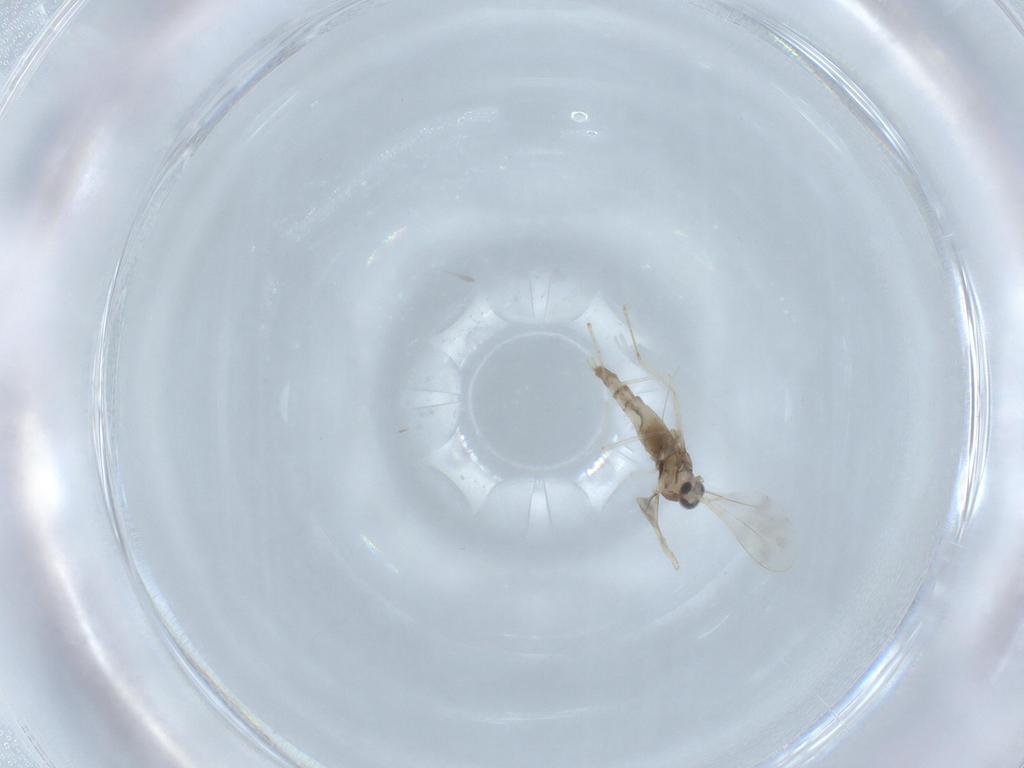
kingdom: Animalia
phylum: Arthropoda
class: Insecta
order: Diptera
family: Cecidomyiidae
